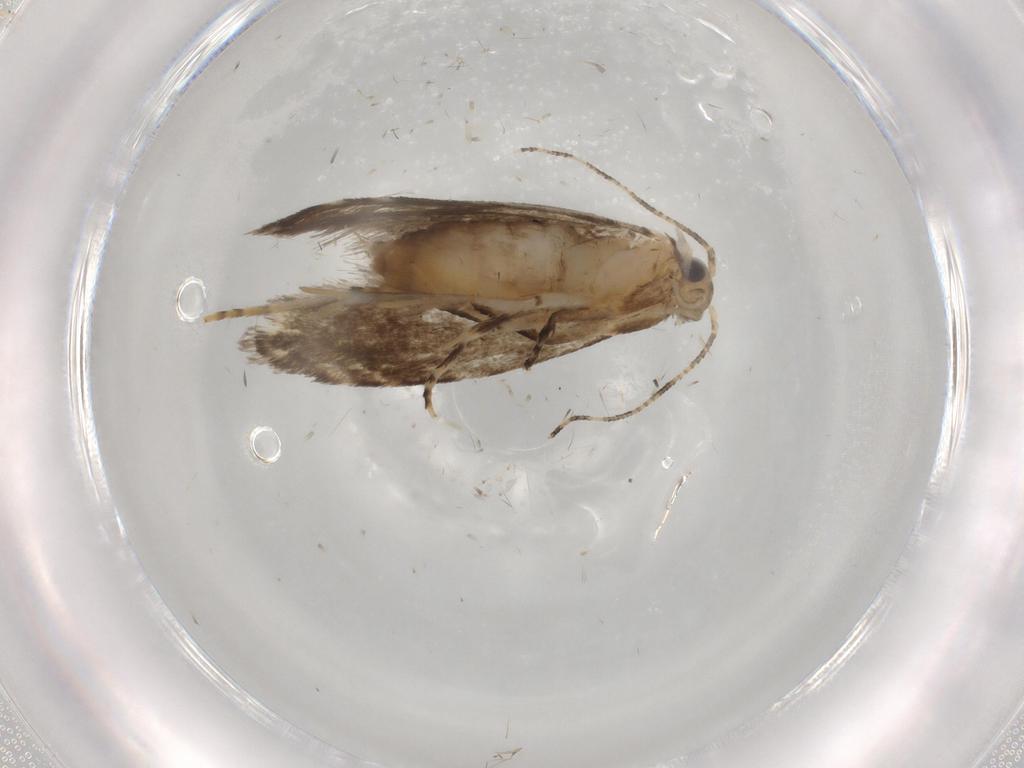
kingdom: Animalia
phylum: Arthropoda
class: Insecta
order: Lepidoptera
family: Tineidae
